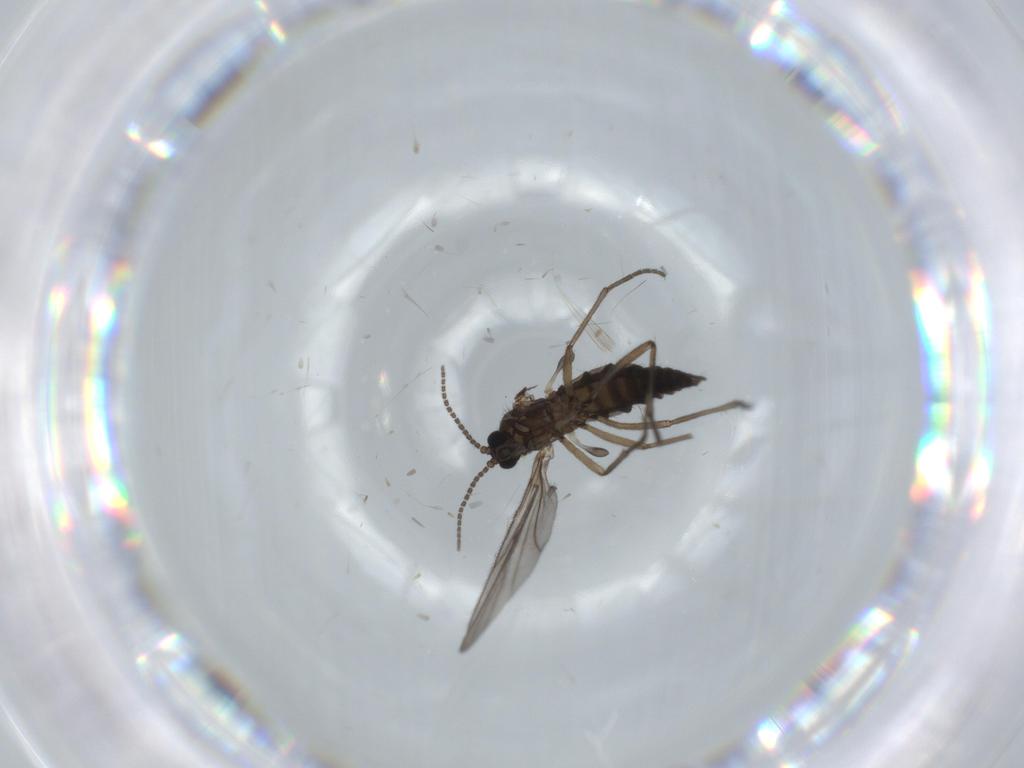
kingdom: Animalia
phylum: Arthropoda
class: Insecta
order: Diptera
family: Sciaridae
